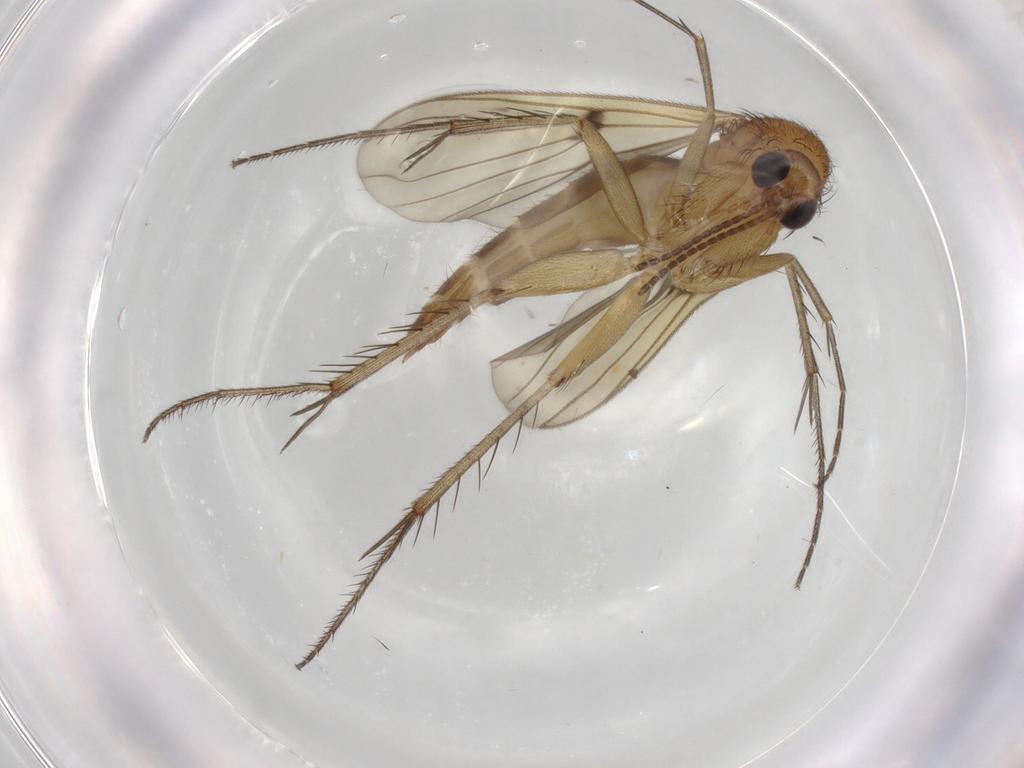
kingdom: Animalia
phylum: Arthropoda
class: Insecta
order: Diptera
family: Mycetophilidae
